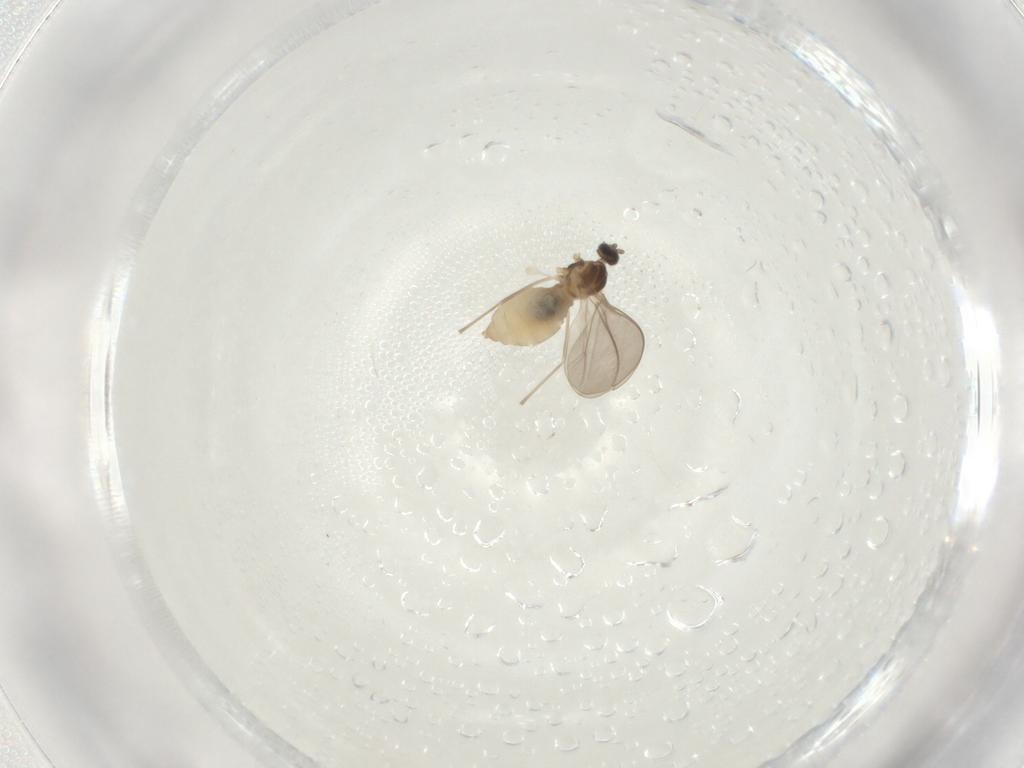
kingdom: Animalia
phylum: Arthropoda
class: Insecta
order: Diptera
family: Cecidomyiidae
